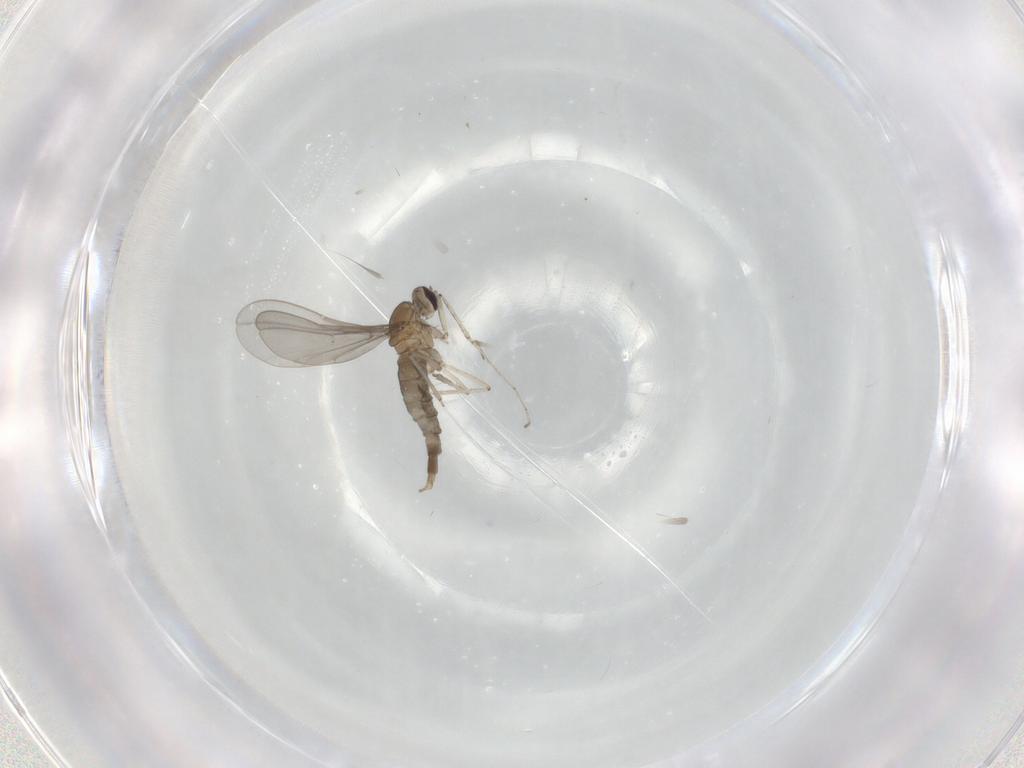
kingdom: Animalia
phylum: Arthropoda
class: Insecta
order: Diptera
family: Cecidomyiidae
